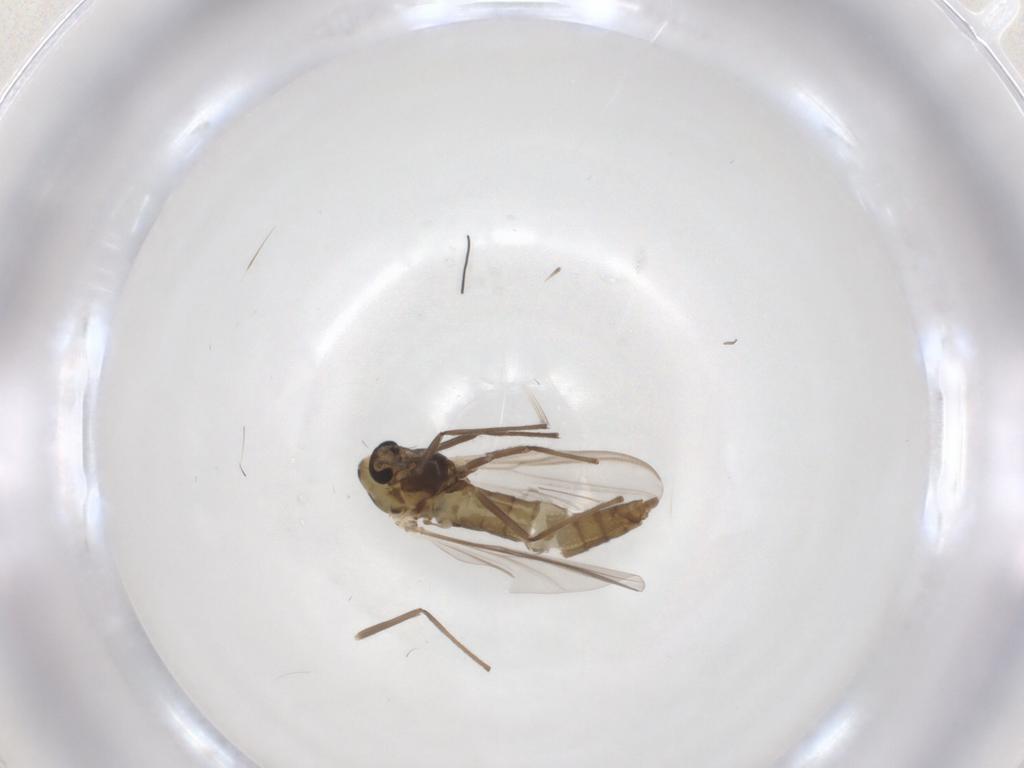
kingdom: Animalia
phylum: Arthropoda
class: Insecta
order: Diptera
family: Chironomidae
